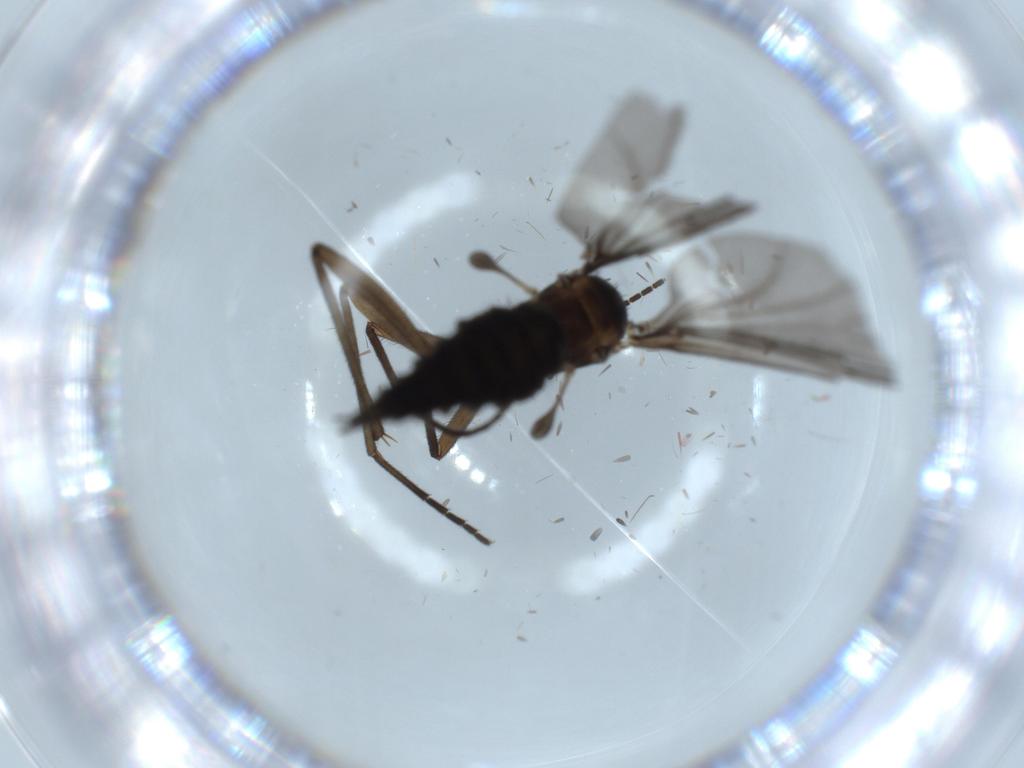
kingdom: Animalia
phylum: Arthropoda
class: Insecta
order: Diptera
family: Sciaridae
